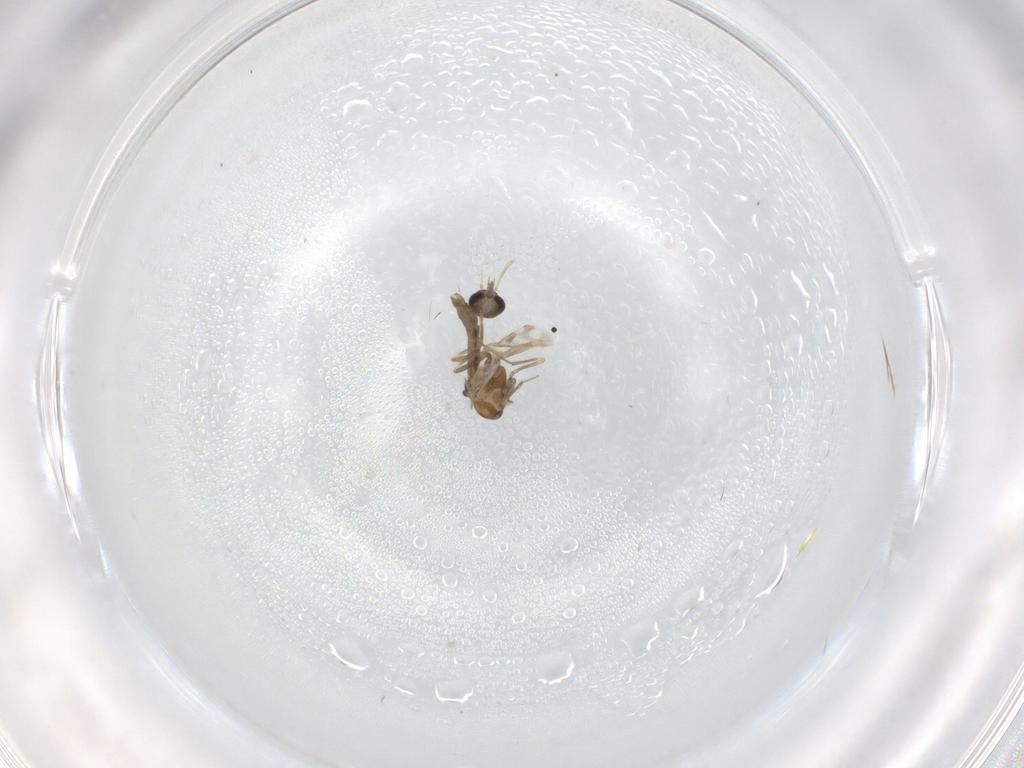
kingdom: Animalia
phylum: Arthropoda
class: Insecta
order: Diptera
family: Ceratopogonidae
